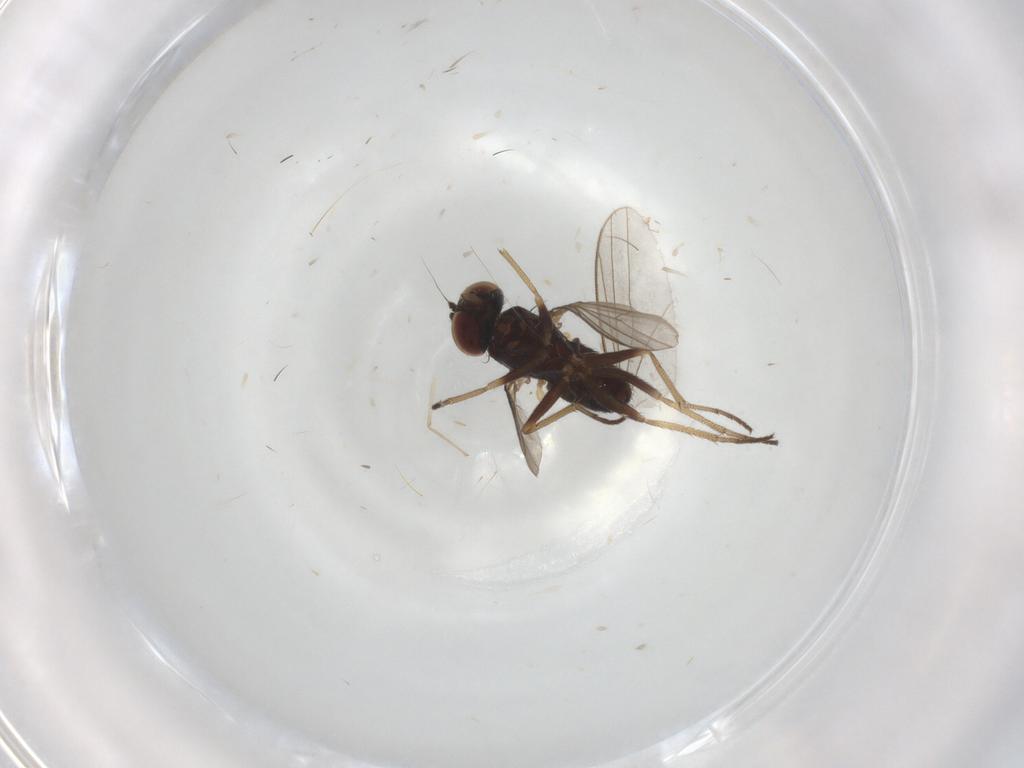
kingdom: Animalia
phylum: Arthropoda
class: Insecta
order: Diptera
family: Dolichopodidae
